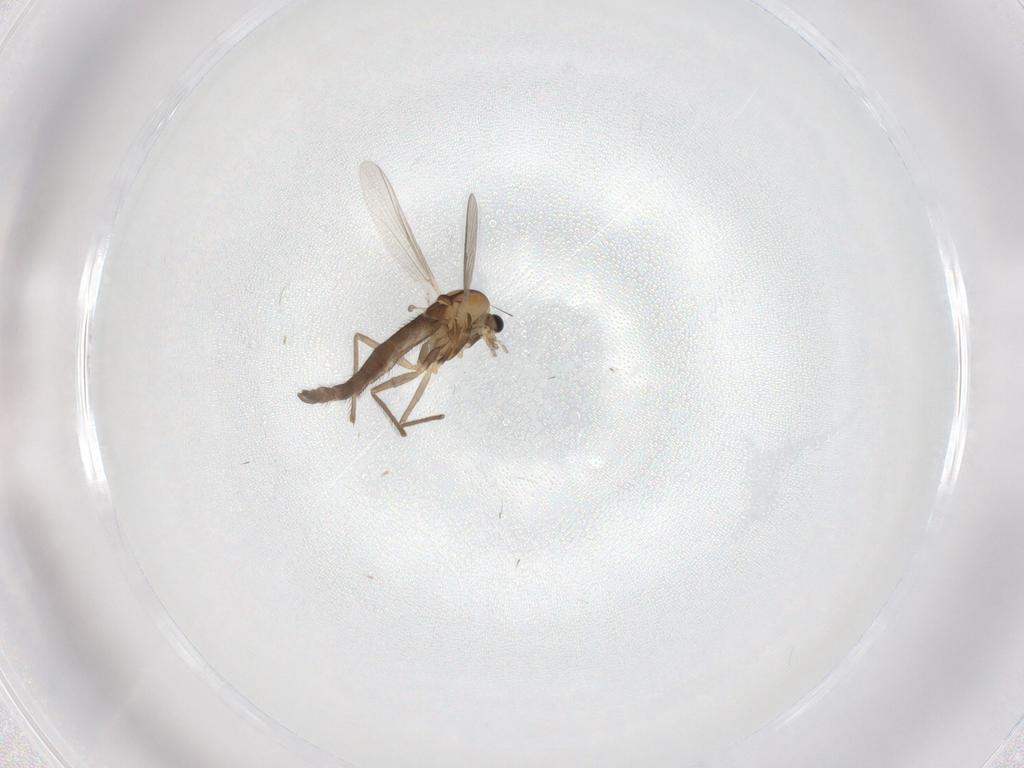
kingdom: Animalia
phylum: Arthropoda
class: Insecta
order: Diptera
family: Chironomidae
